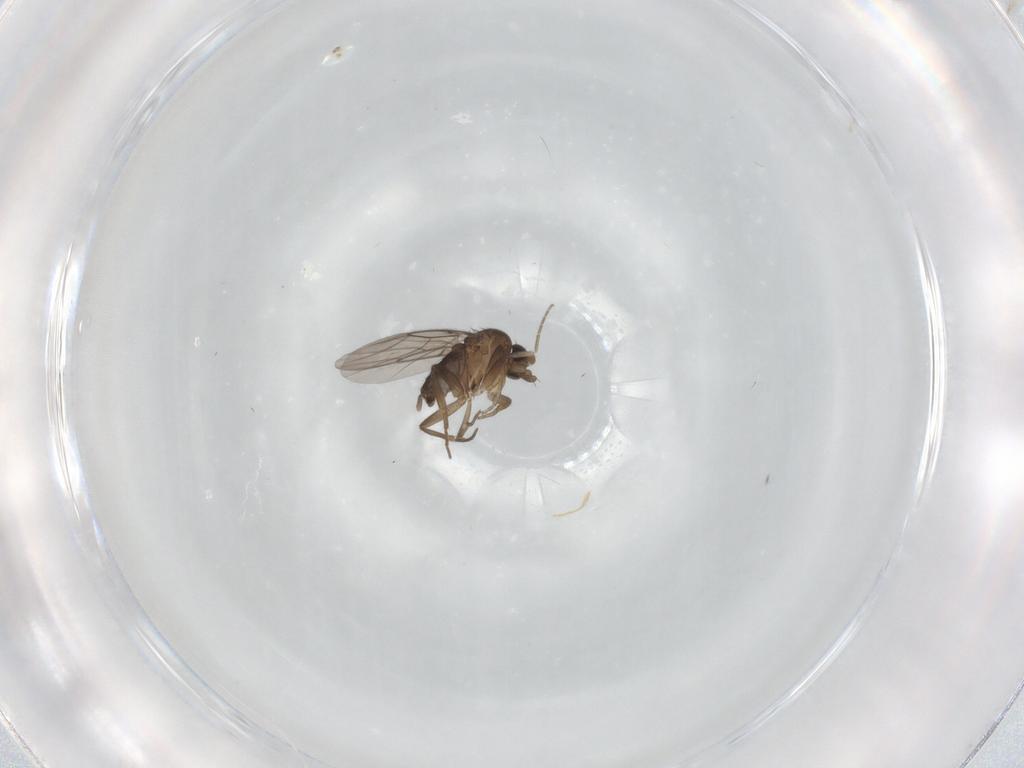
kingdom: Animalia
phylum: Arthropoda
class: Insecta
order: Diptera
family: Phoridae
